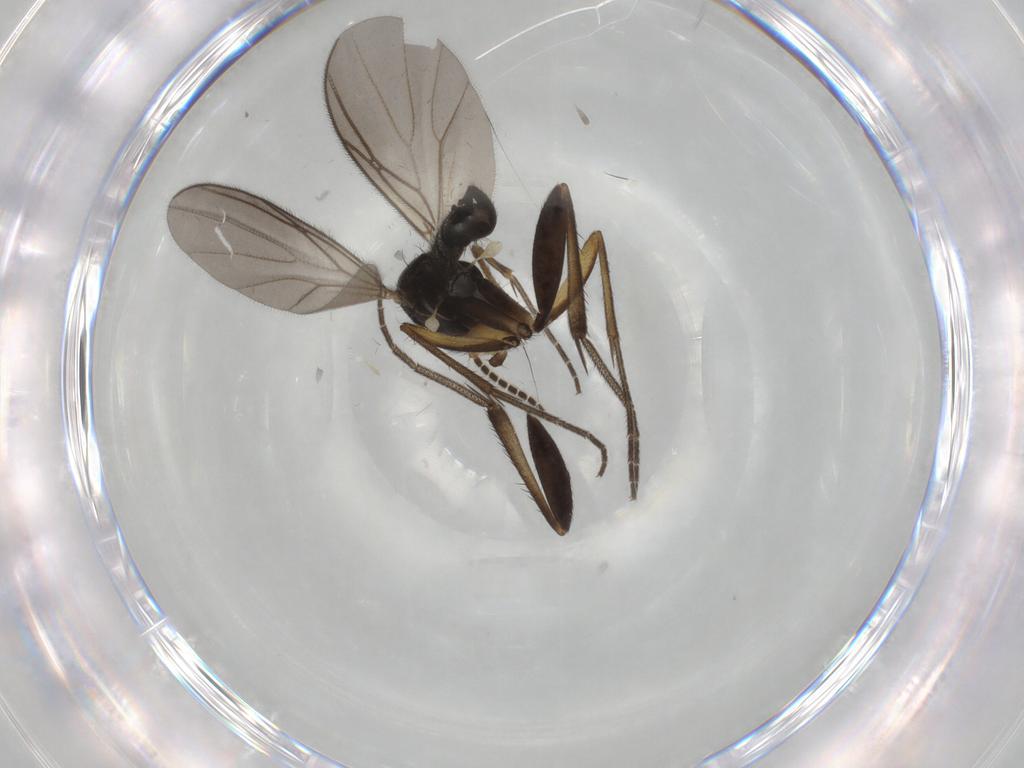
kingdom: Animalia
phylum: Arthropoda
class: Insecta
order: Diptera
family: Mycetophilidae
